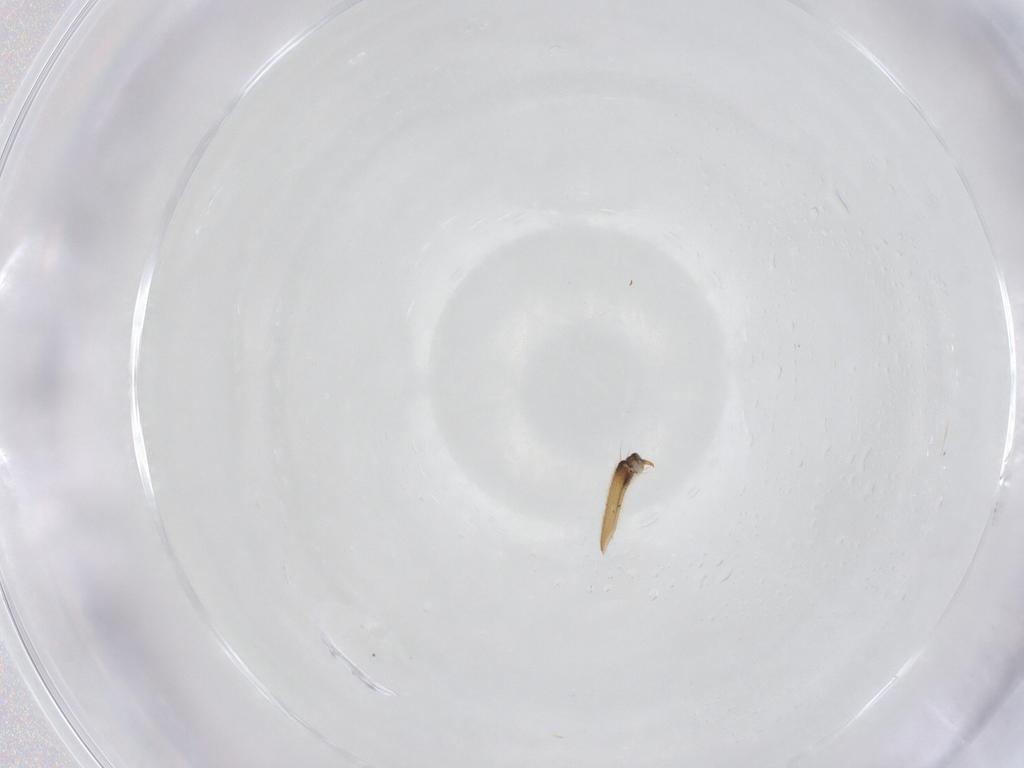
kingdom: Animalia
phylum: Arthropoda
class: Insecta
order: Plecoptera
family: Perlidae
